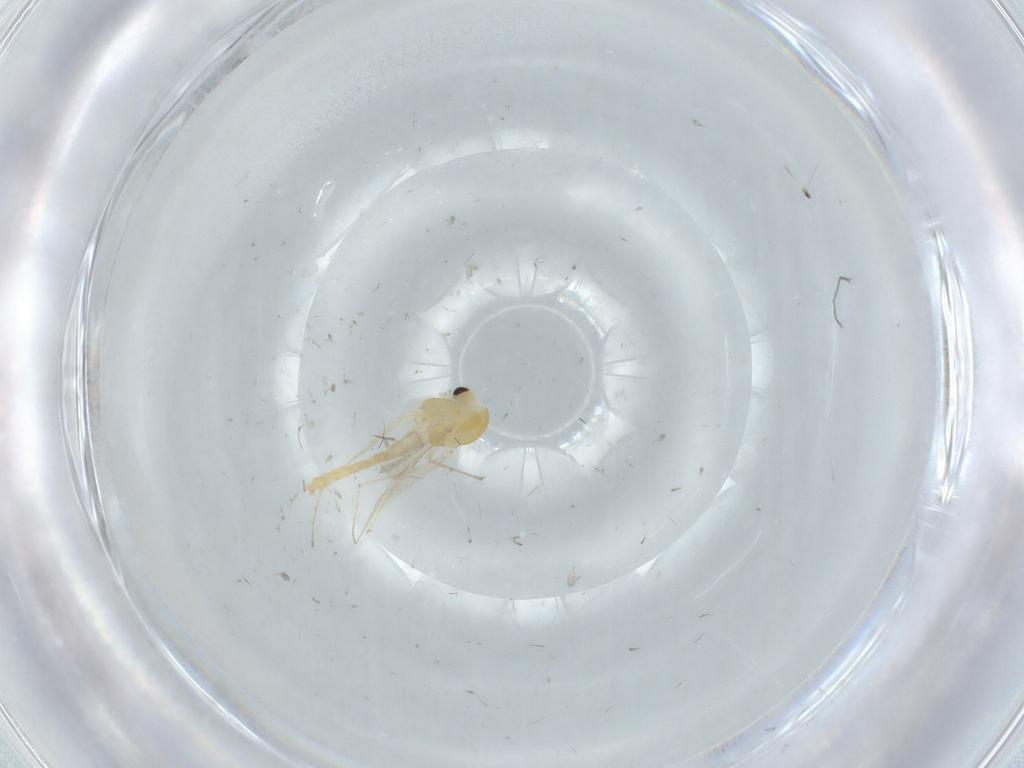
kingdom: Animalia
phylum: Arthropoda
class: Insecta
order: Diptera
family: Chironomidae
